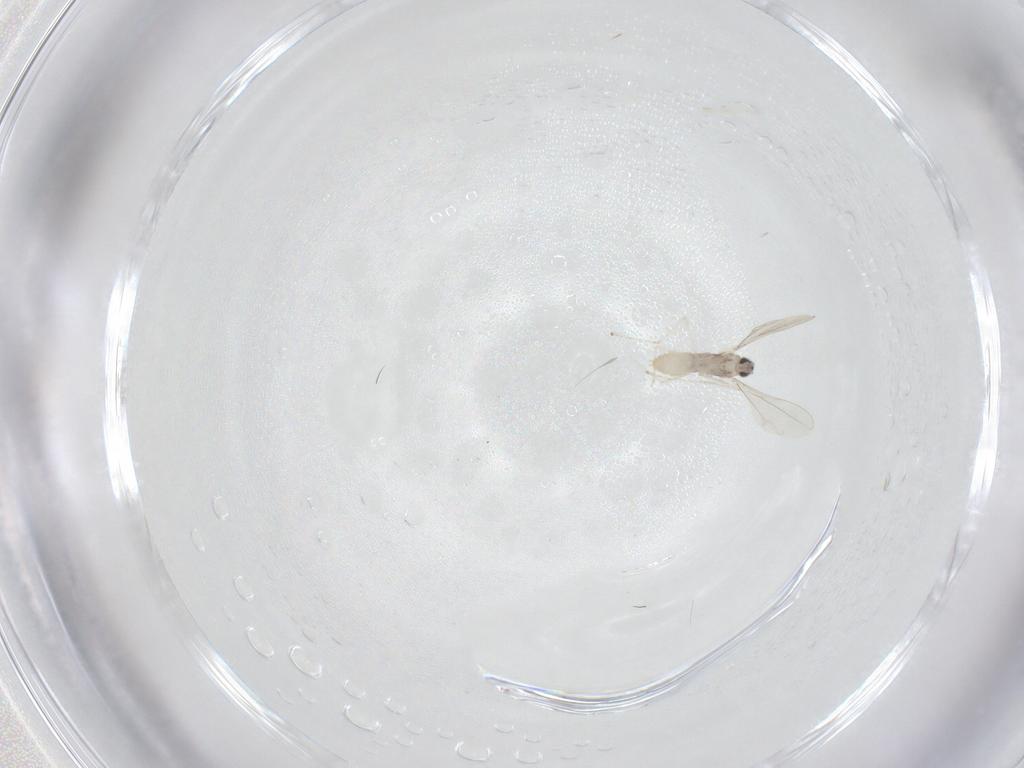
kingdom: Animalia
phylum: Arthropoda
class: Insecta
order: Diptera
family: Cecidomyiidae
